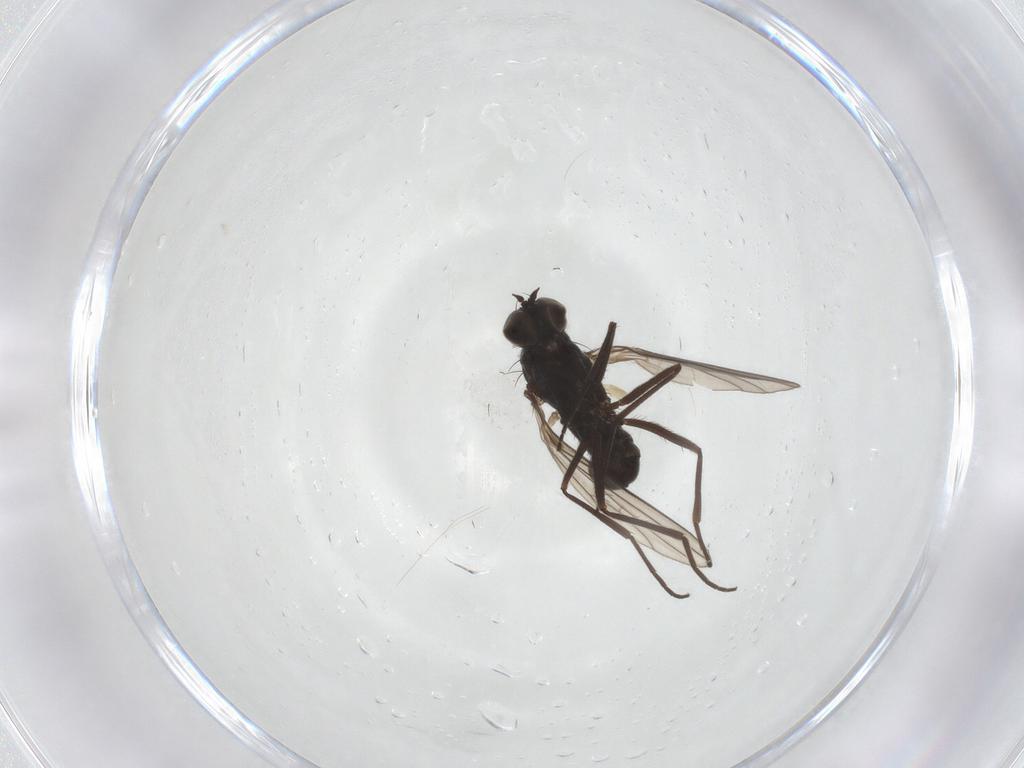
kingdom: Animalia
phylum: Arthropoda
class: Insecta
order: Diptera
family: Dolichopodidae
